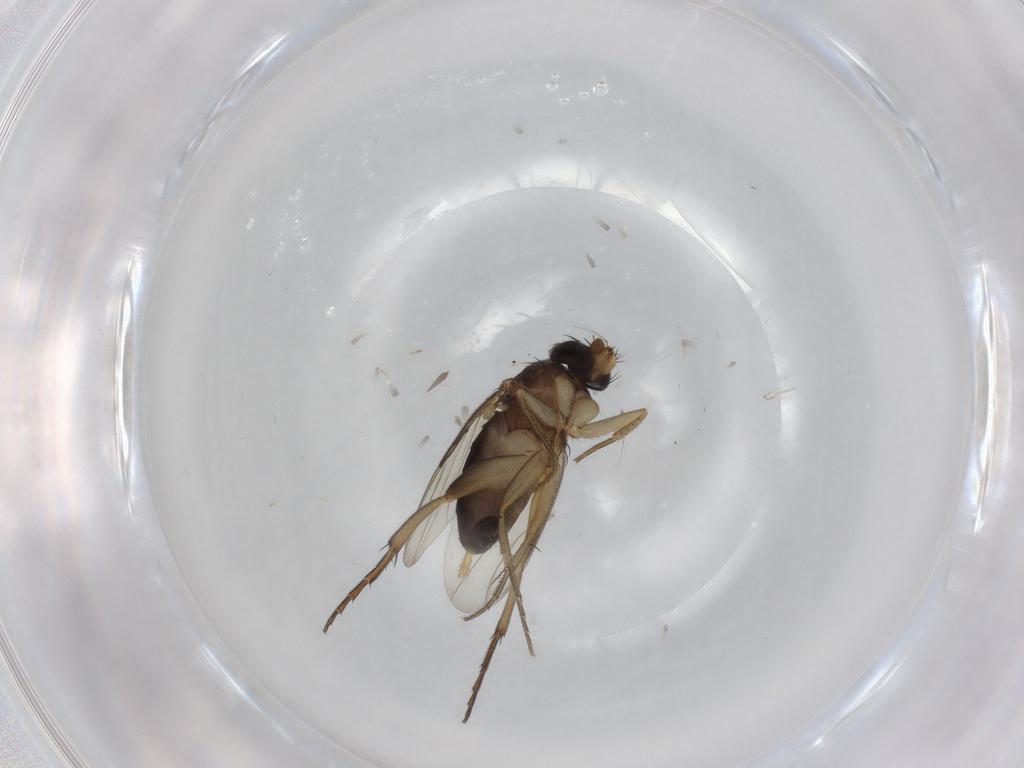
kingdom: Animalia
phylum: Arthropoda
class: Insecta
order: Diptera
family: Phoridae
